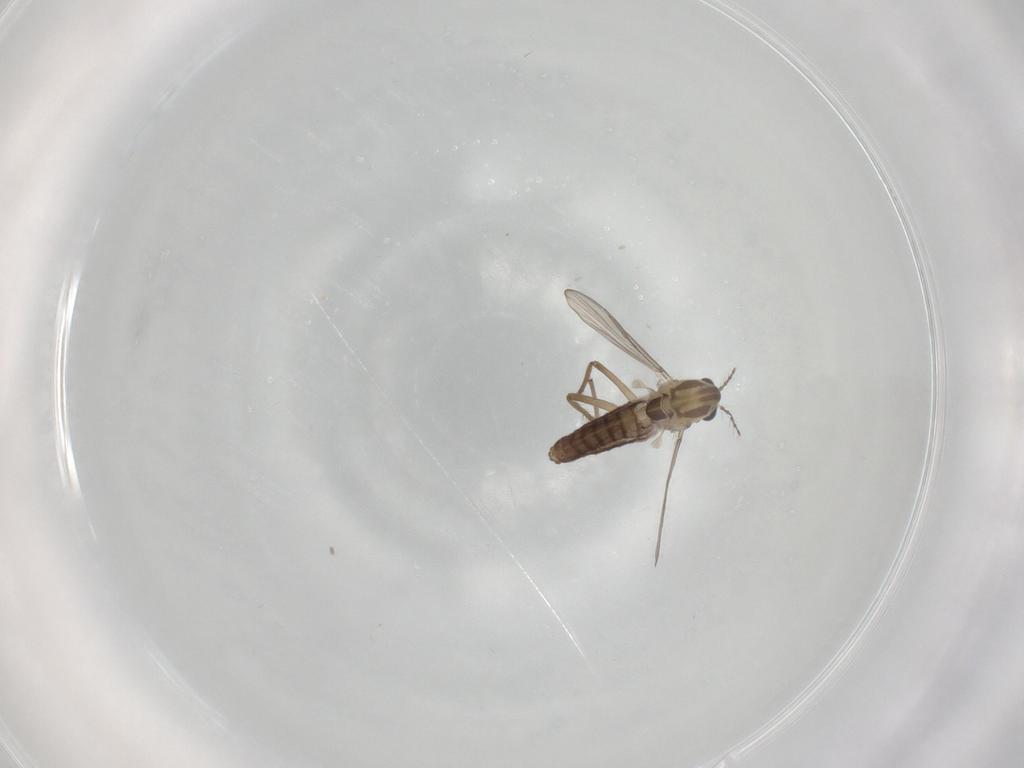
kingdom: Animalia
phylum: Arthropoda
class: Insecta
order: Diptera
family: Chironomidae
